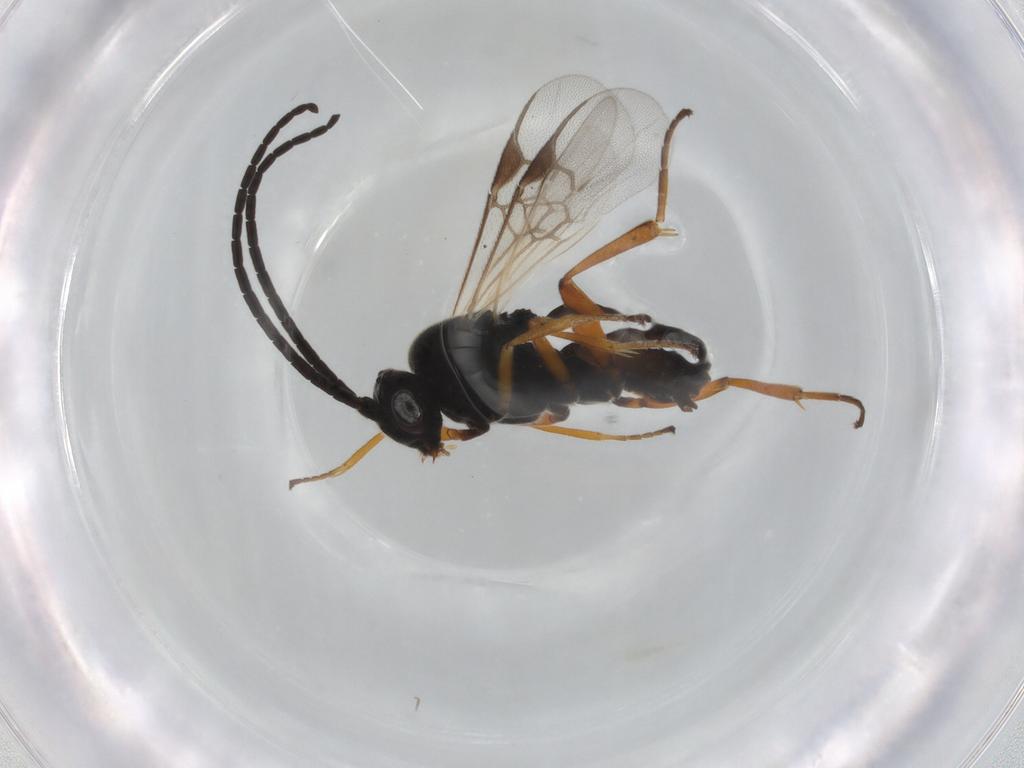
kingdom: Animalia
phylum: Arthropoda
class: Insecta
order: Hymenoptera
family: Braconidae
